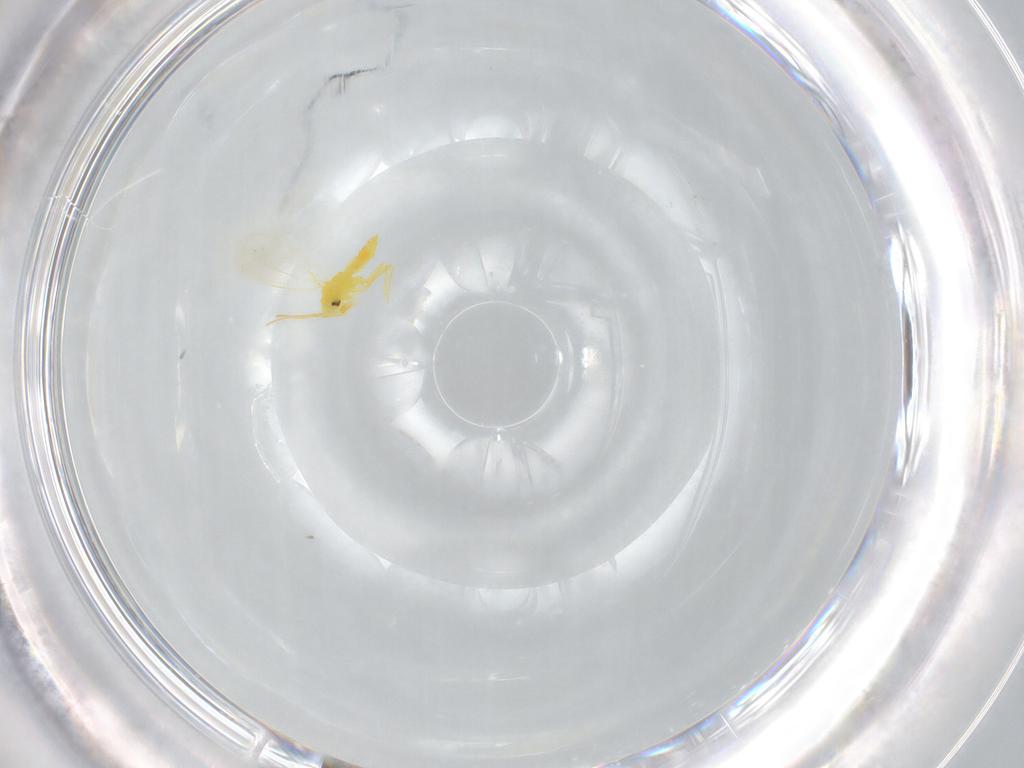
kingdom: Animalia
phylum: Arthropoda
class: Insecta
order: Hemiptera
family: Aleyrodidae
